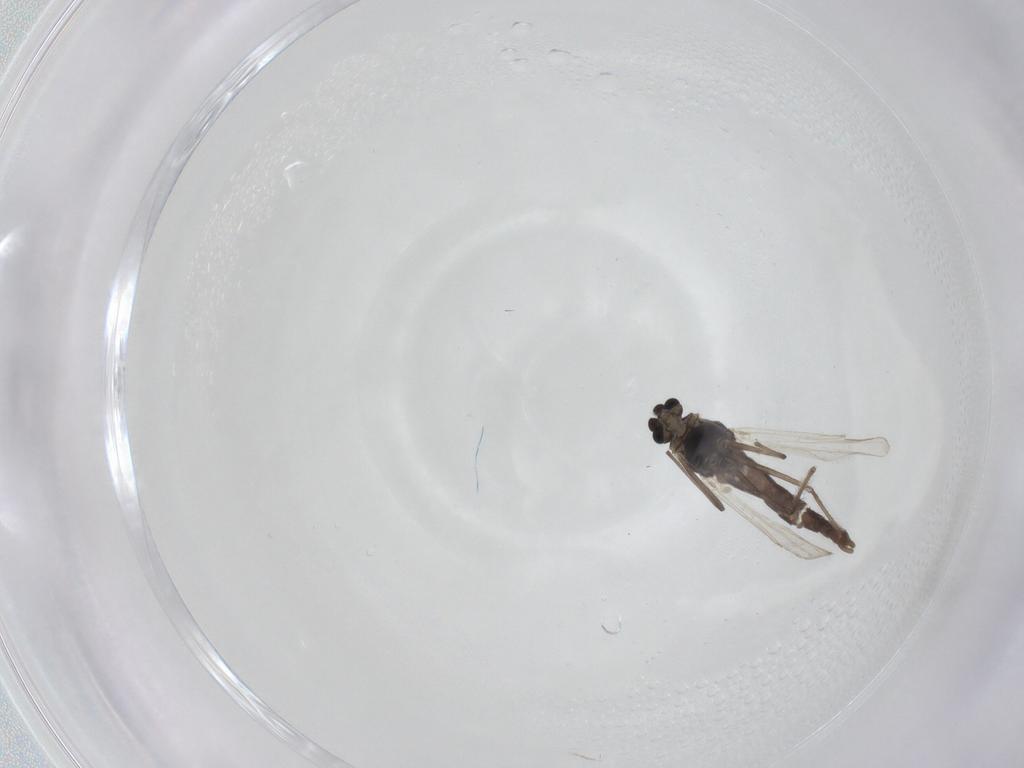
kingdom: Animalia
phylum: Arthropoda
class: Insecta
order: Diptera
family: Chironomidae
